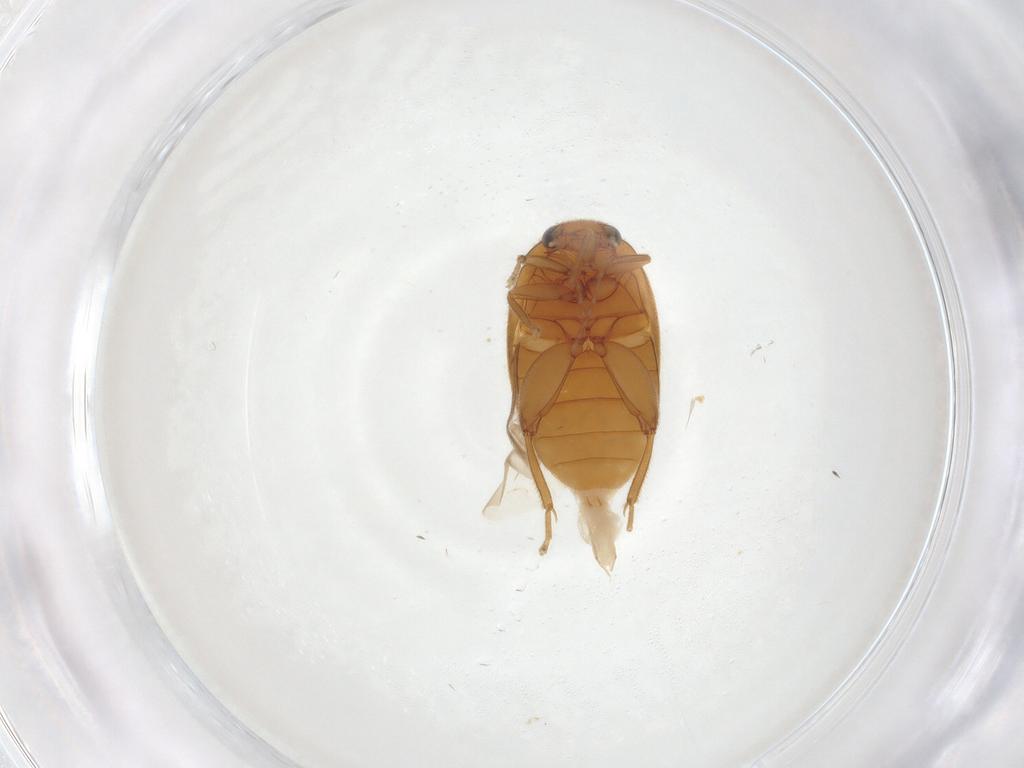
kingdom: Animalia
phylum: Arthropoda
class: Insecta
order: Coleoptera
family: Scirtidae
